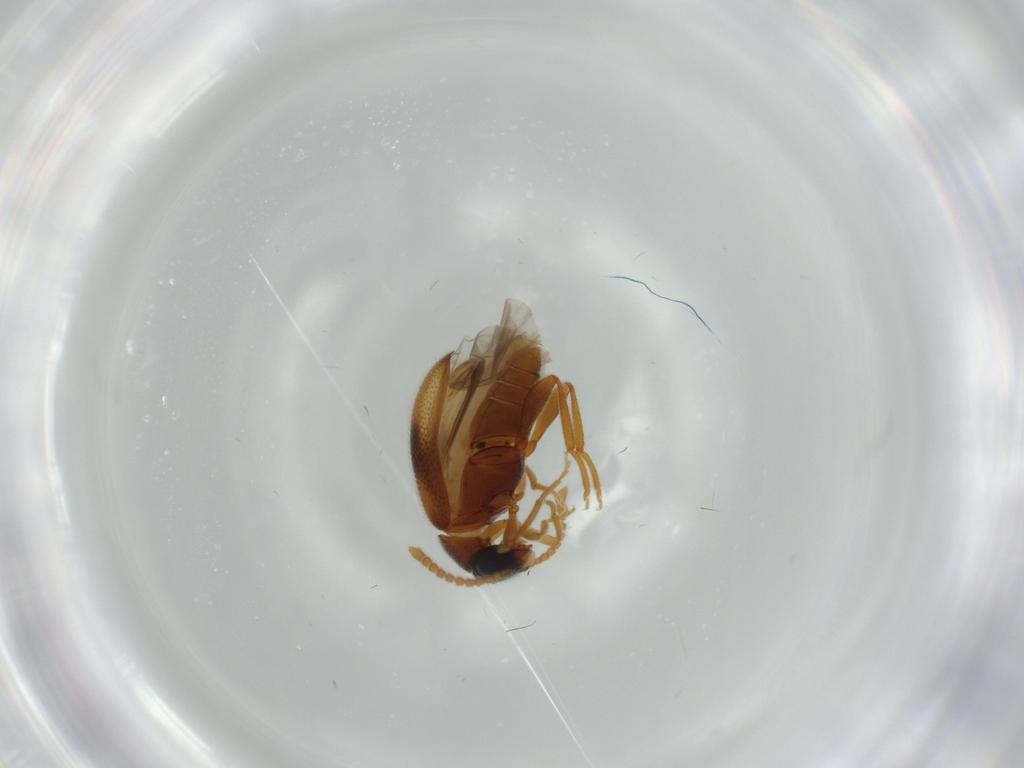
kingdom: Animalia
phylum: Arthropoda
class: Insecta
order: Coleoptera
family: Aderidae
